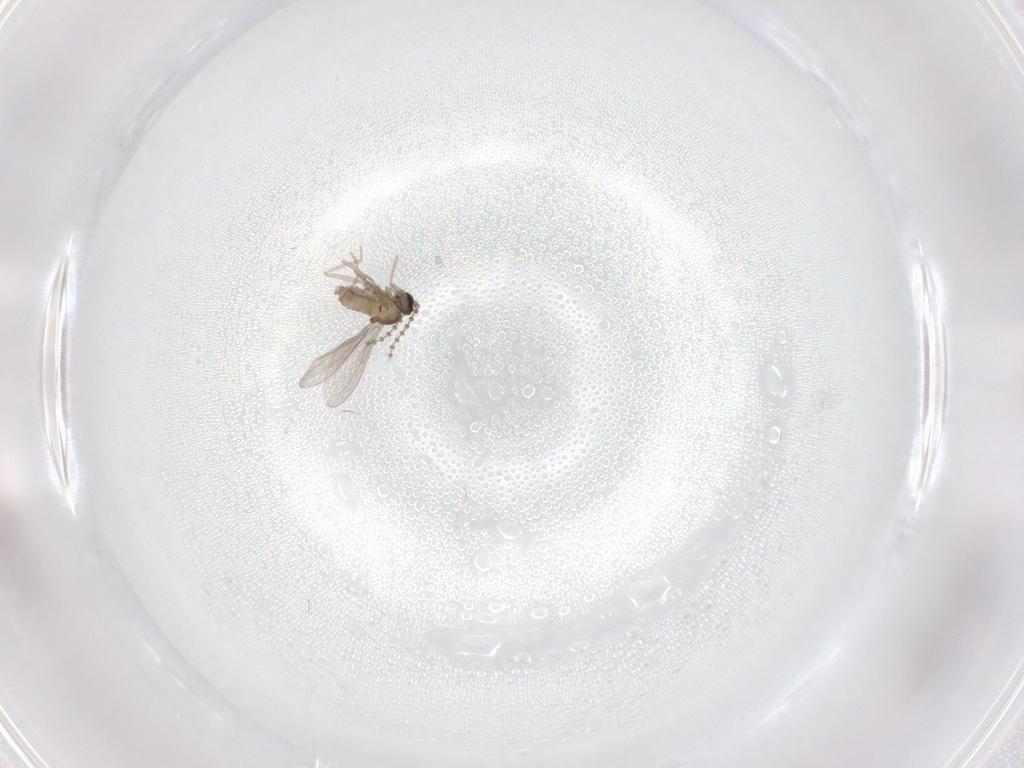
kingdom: Animalia
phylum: Arthropoda
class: Insecta
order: Diptera
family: Cecidomyiidae
